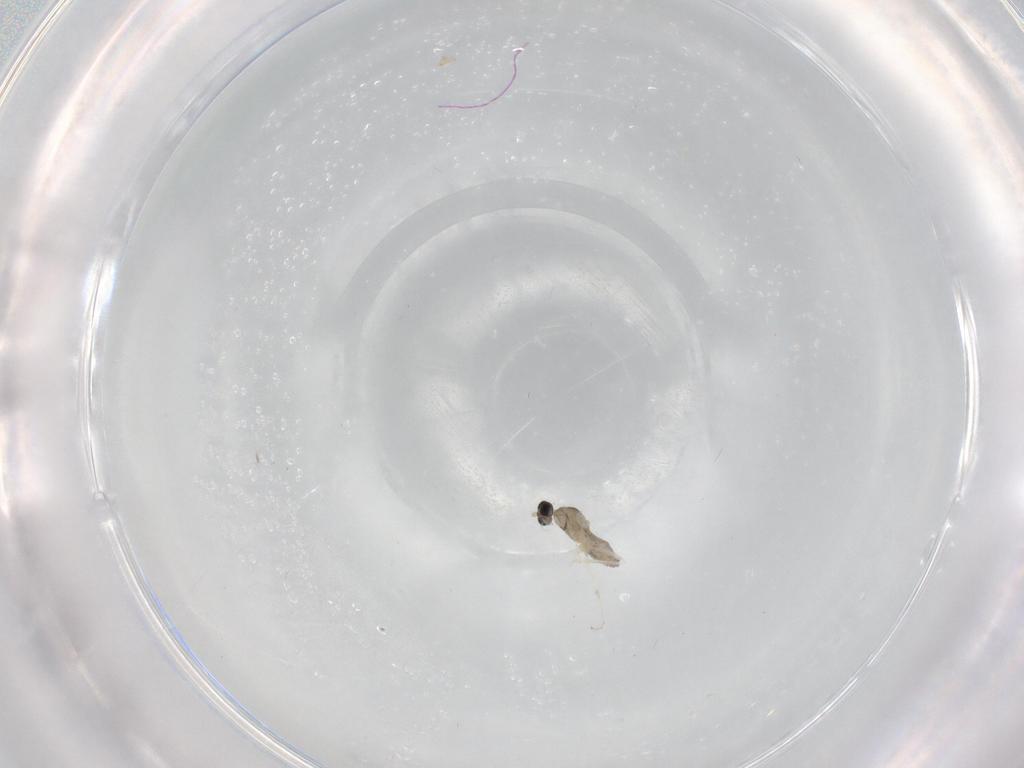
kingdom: Animalia
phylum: Arthropoda
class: Insecta
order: Diptera
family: Cecidomyiidae
